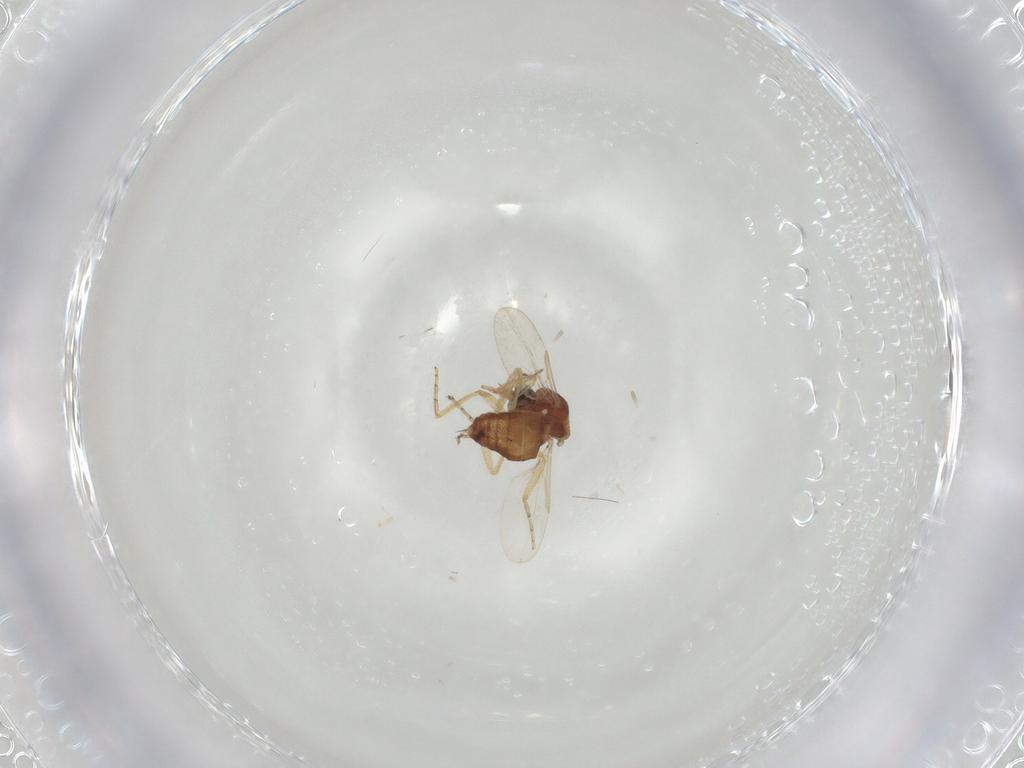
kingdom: Animalia
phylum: Arthropoda
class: Insecta
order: Diptera
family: Ceratopogonidae
